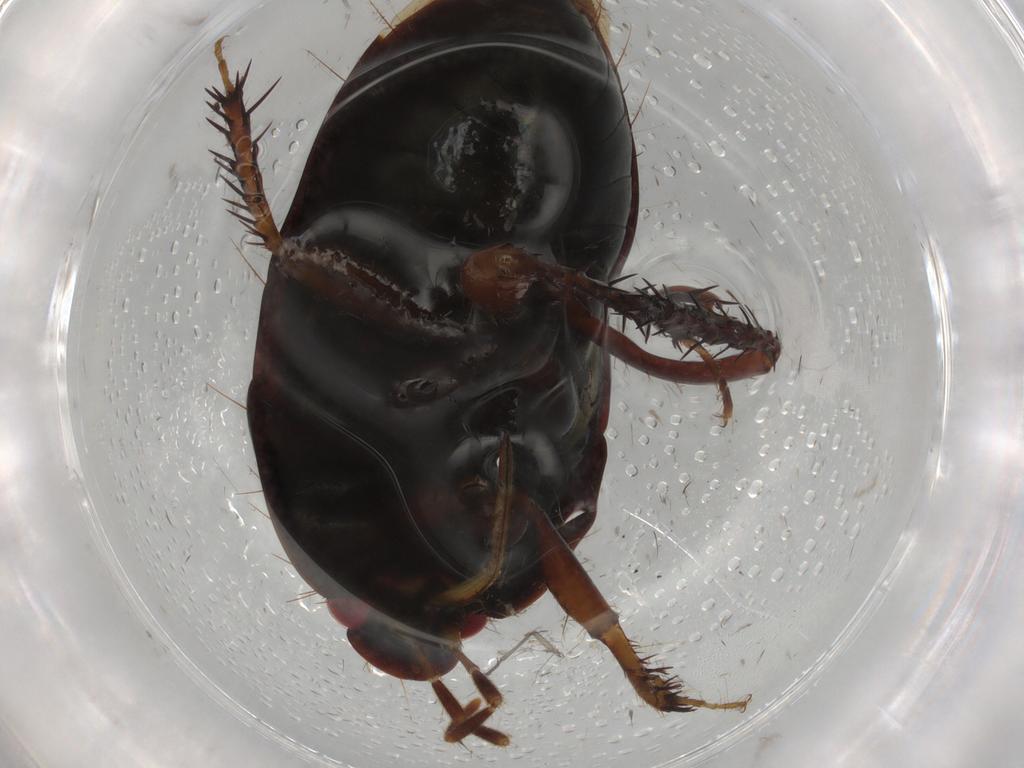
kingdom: Animalia
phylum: Arthropoda
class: Insecta
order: Hemiptera
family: Cydnidae
